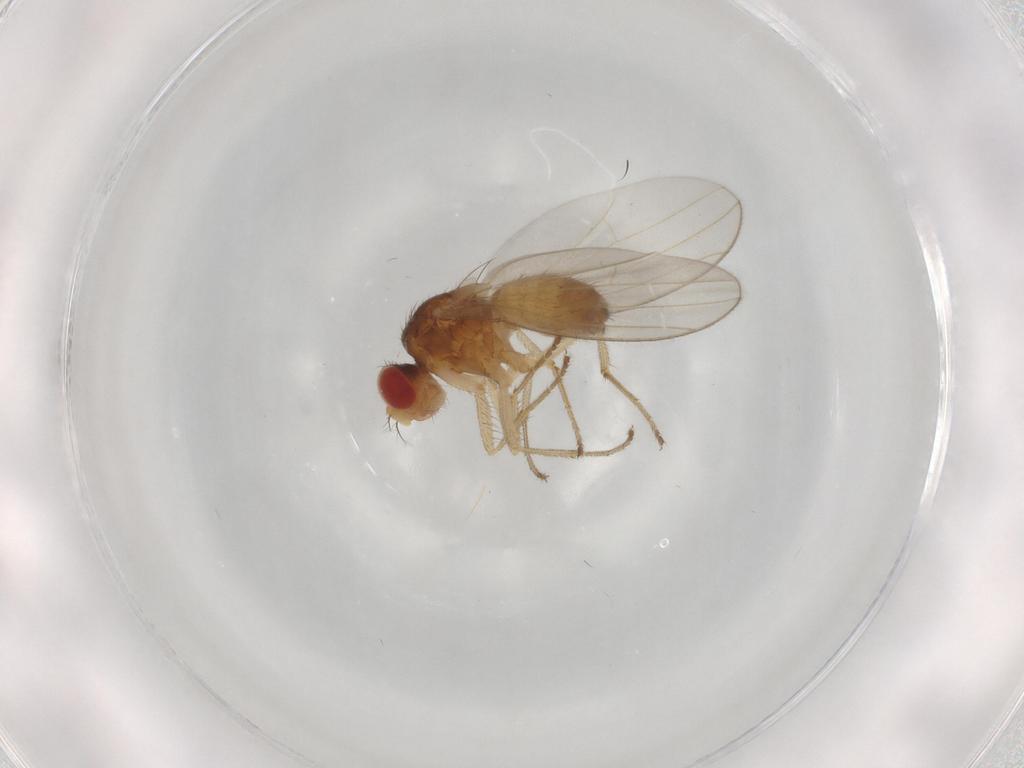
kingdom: Animalia
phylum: Arthropoda
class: Insecta
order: Diptera
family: Drosophilidae
